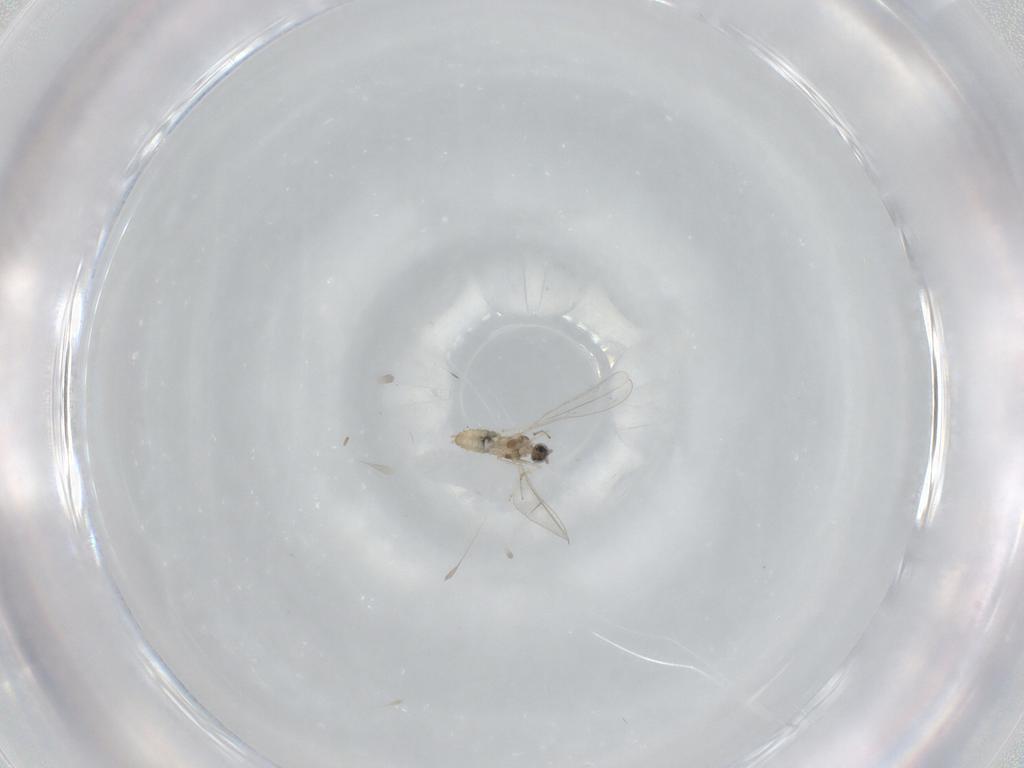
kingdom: Animalia
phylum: Arthropoda
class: Insecta
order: Diptera
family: Cecidomyiidae
